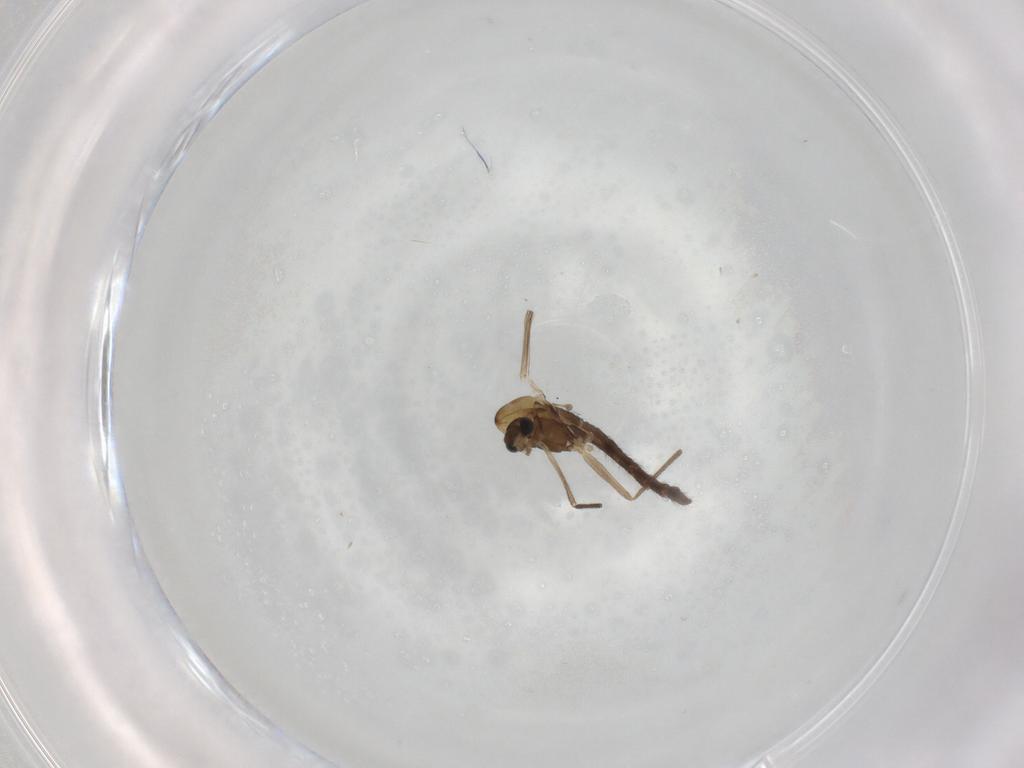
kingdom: Animalia
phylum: Arthropoda
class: Insecta
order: Diptera
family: Chironomidae
